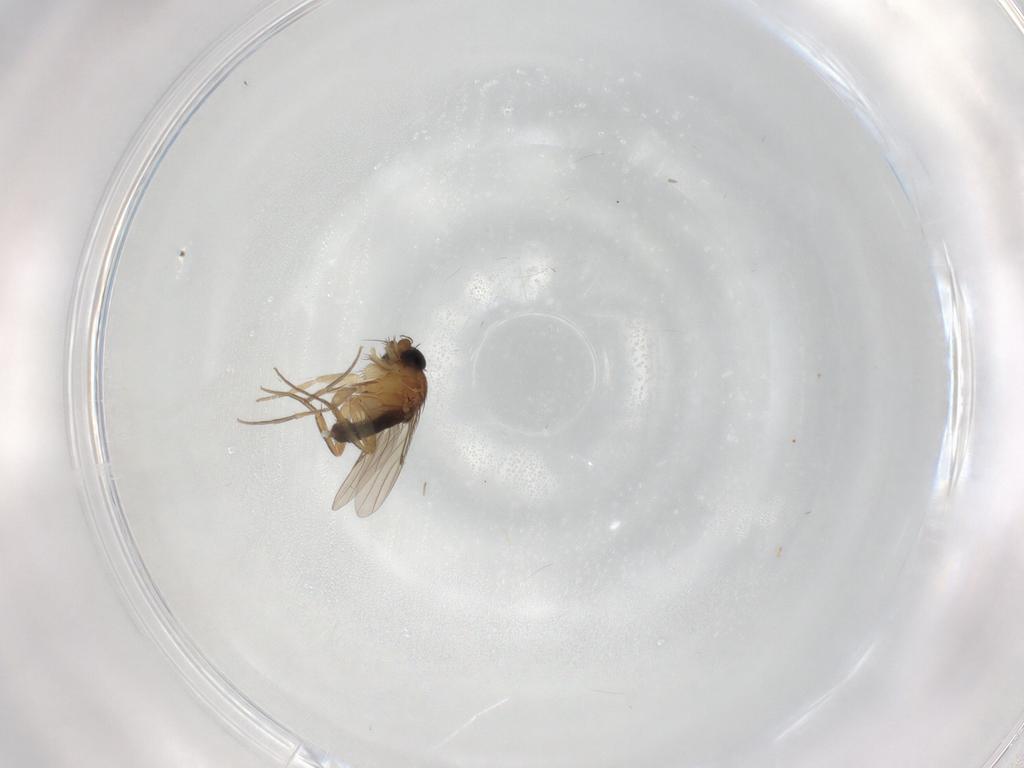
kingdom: Animalia
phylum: Arthropoda
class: Insecta
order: Diptera
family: Phoridae
